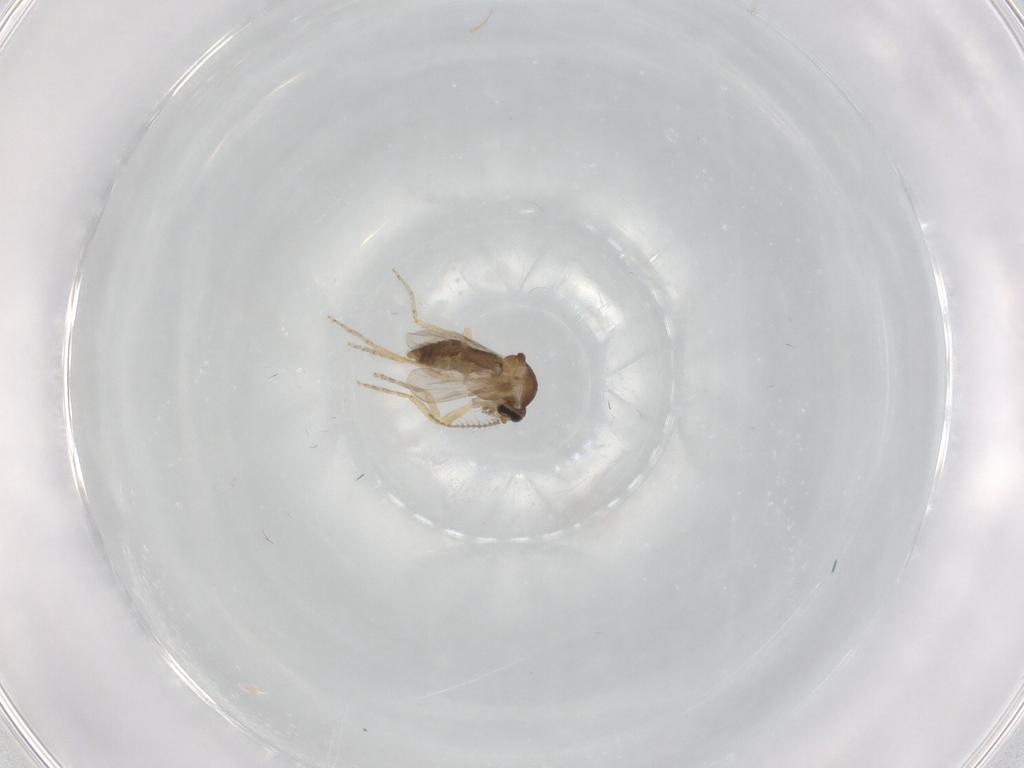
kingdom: Animalia
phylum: Arthropoda
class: Insecta
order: Diptera
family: Ceratopogonidae
